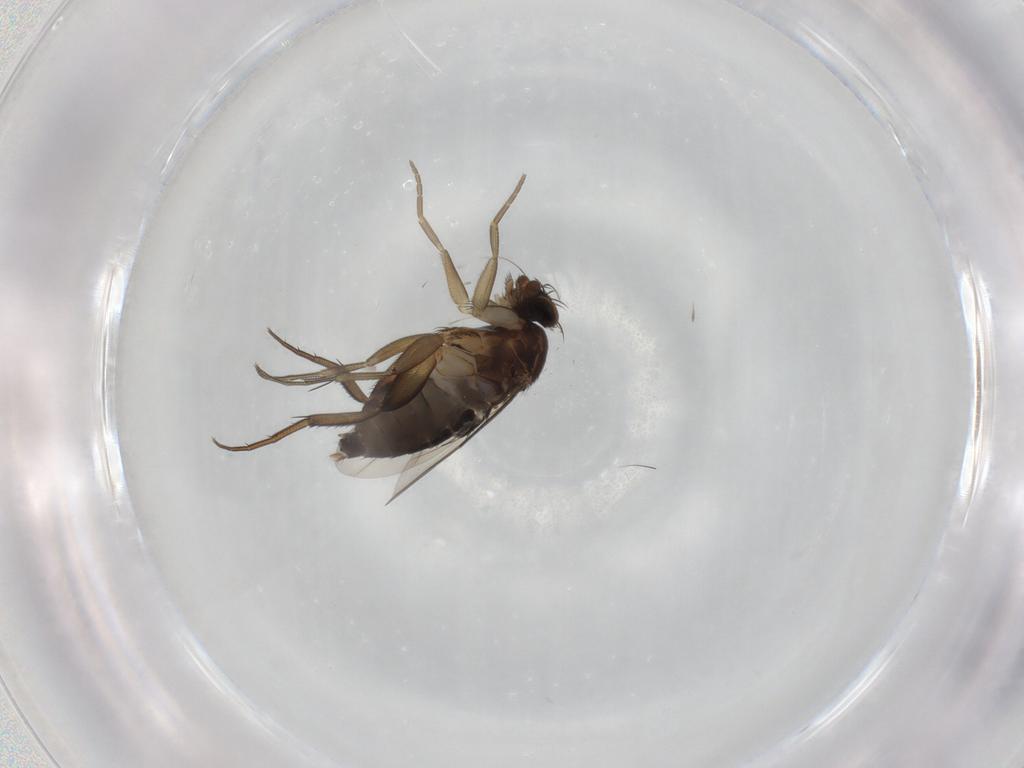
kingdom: Animalia
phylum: Arthropoda
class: Insecta
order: Diptera
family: Phoridae
